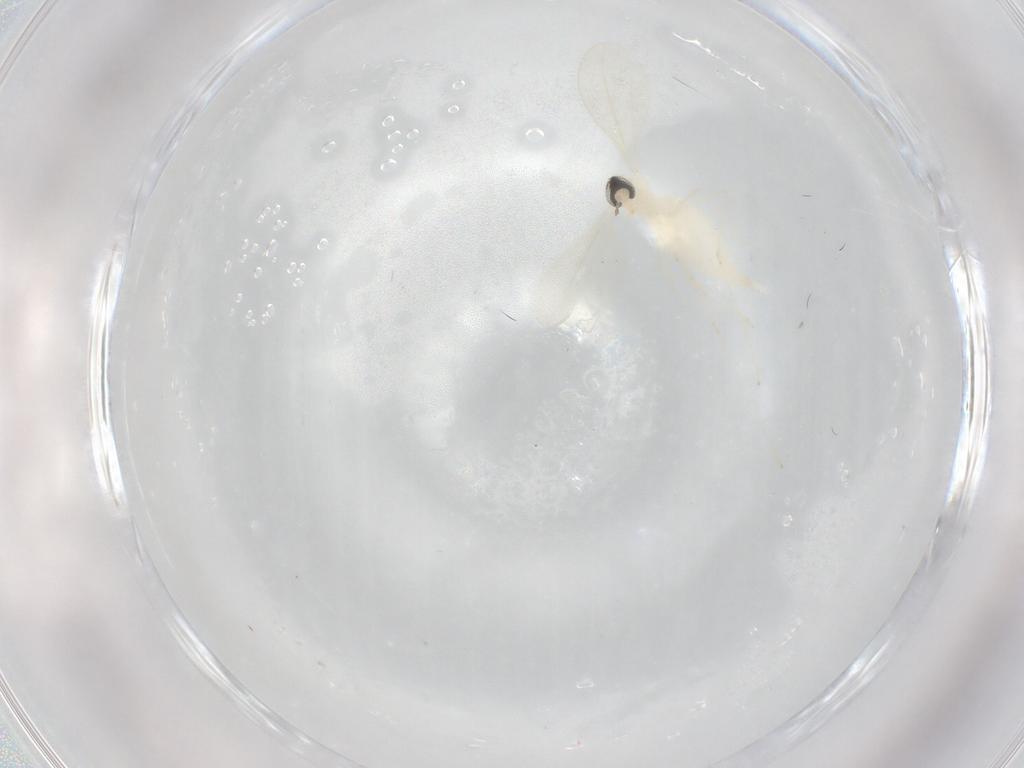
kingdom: Animalia
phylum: Arthropoda
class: Insecta
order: Diptera
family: Cecidomyiidae
